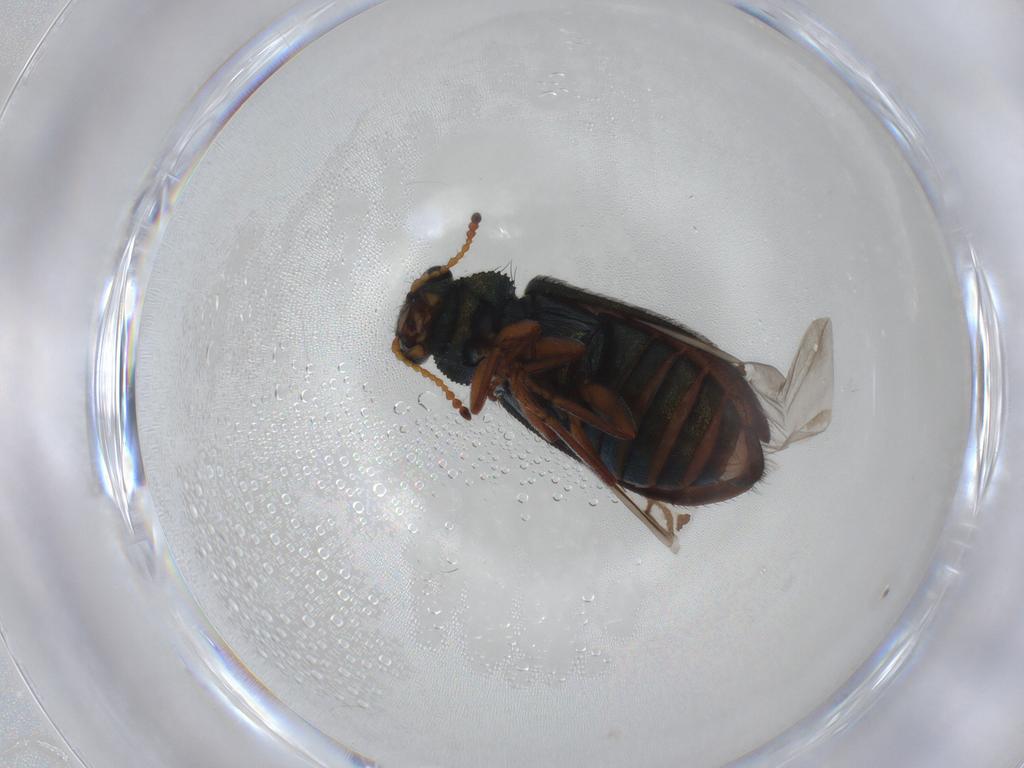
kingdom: Animalia
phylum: Arthropoda
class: Insecta
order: Coleoptera
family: Melyridae
